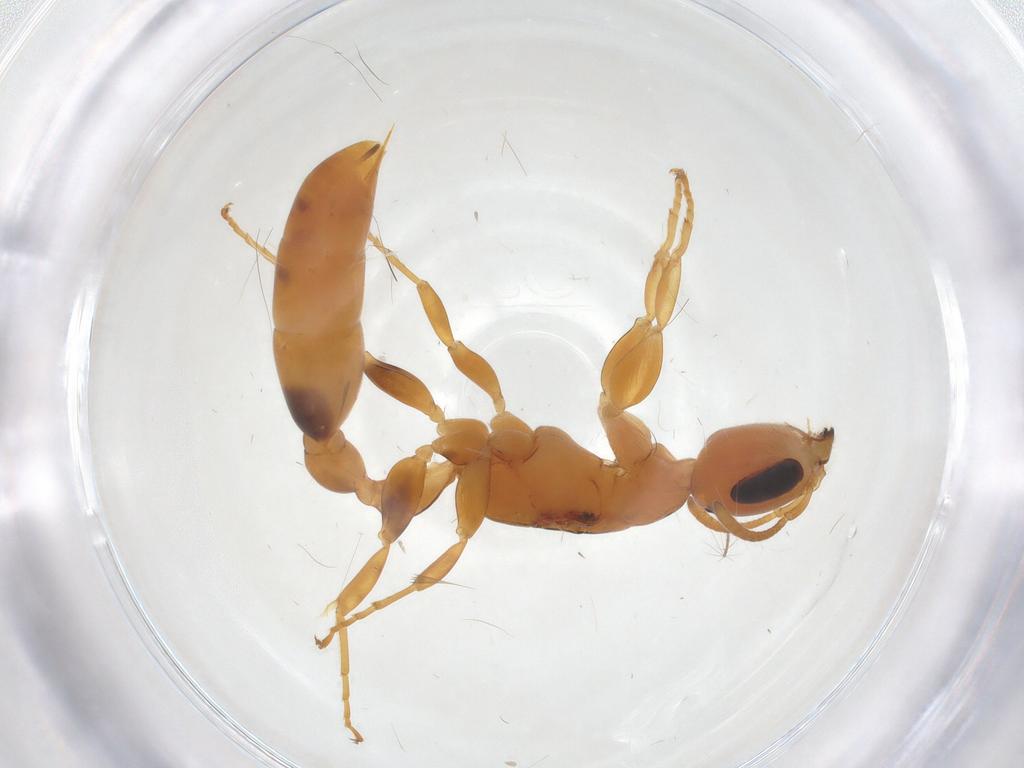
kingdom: Animalia
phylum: Arthropoda
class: Insecta
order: Hymenoptera
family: Formicidae
